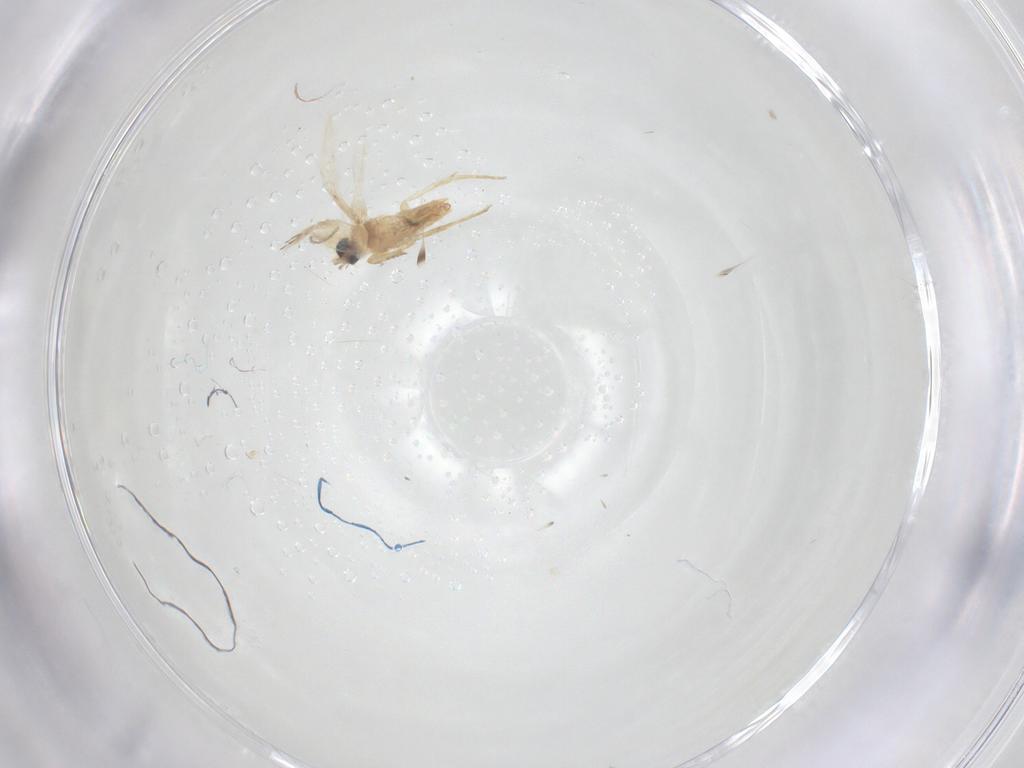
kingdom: Animalia
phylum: Arthropoda
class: Insecta
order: Lepidoptera
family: Crambidae
